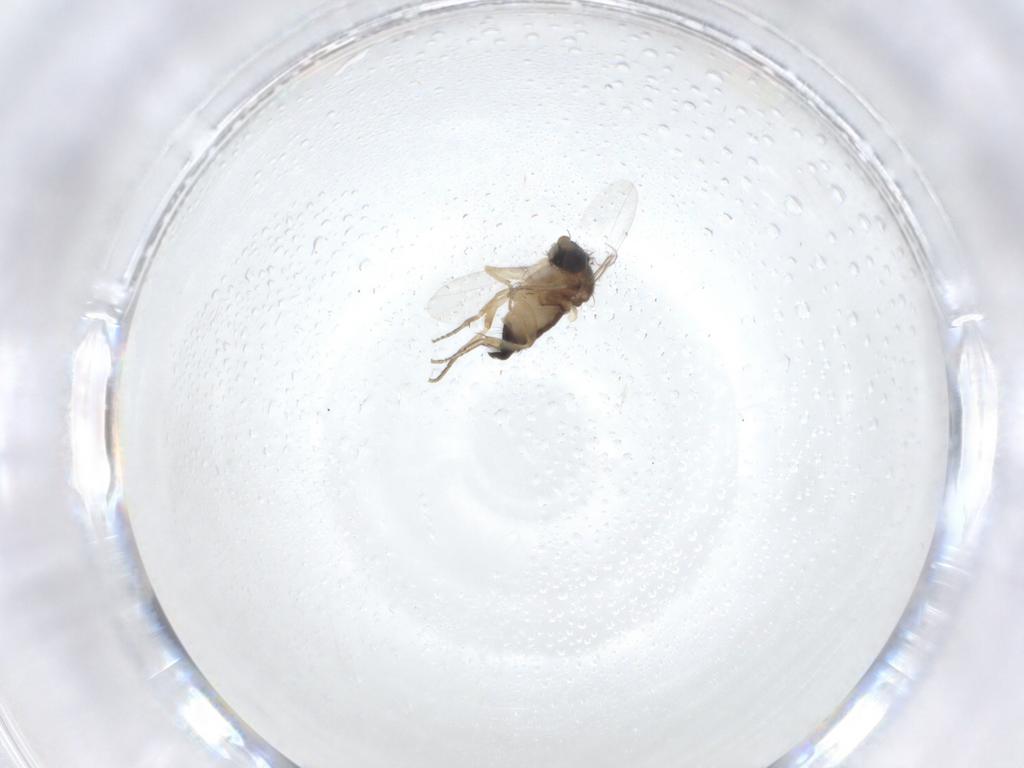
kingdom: Animalia
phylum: Arthropoda
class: Insecta
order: Diptera
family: Phoridae
